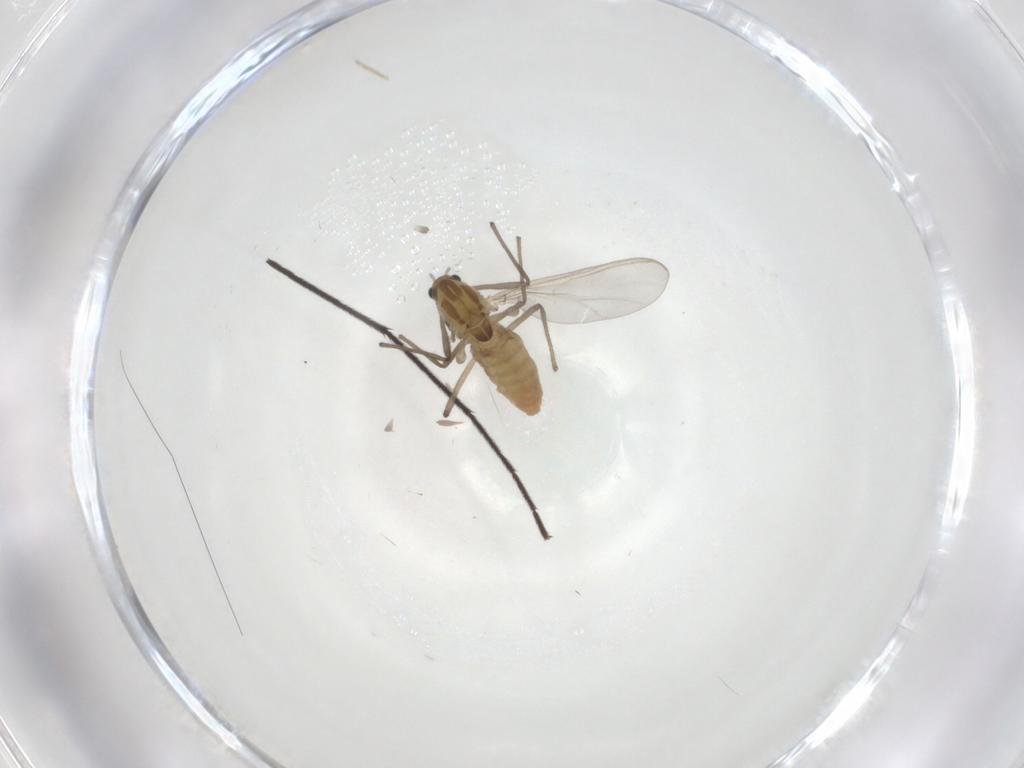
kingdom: Animalia
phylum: Arthropoda
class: Insecta
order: Diptera
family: Chironomidae
